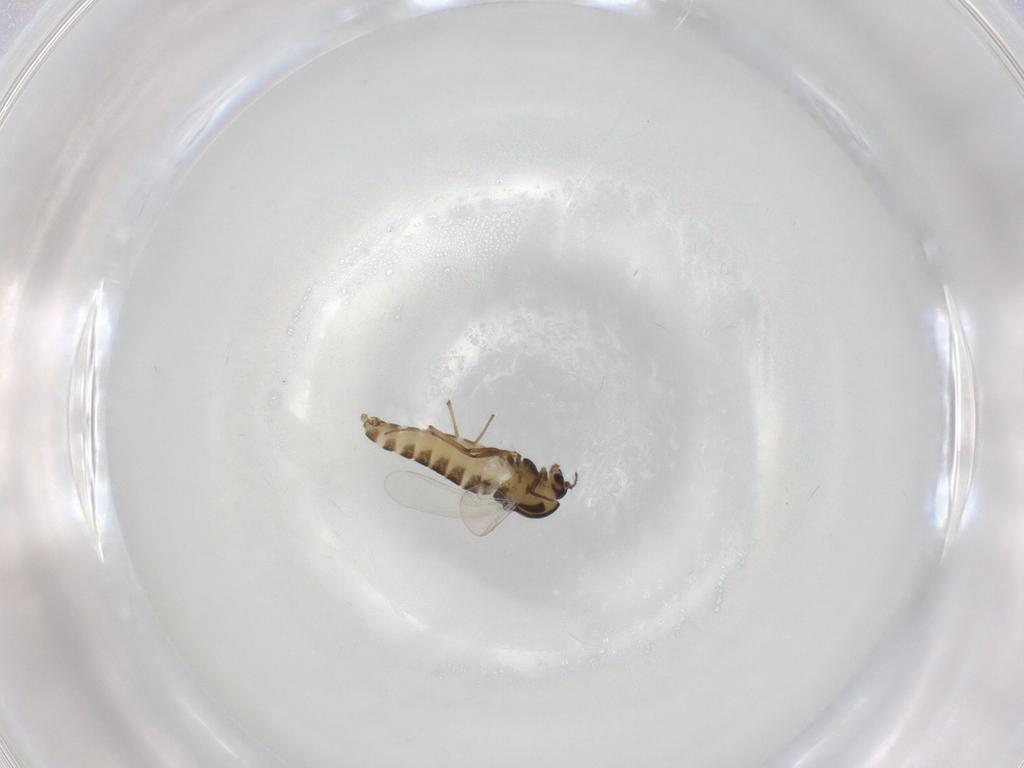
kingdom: Animalia
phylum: Arthropoda
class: Insecta
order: Diptera
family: Chironomidae
